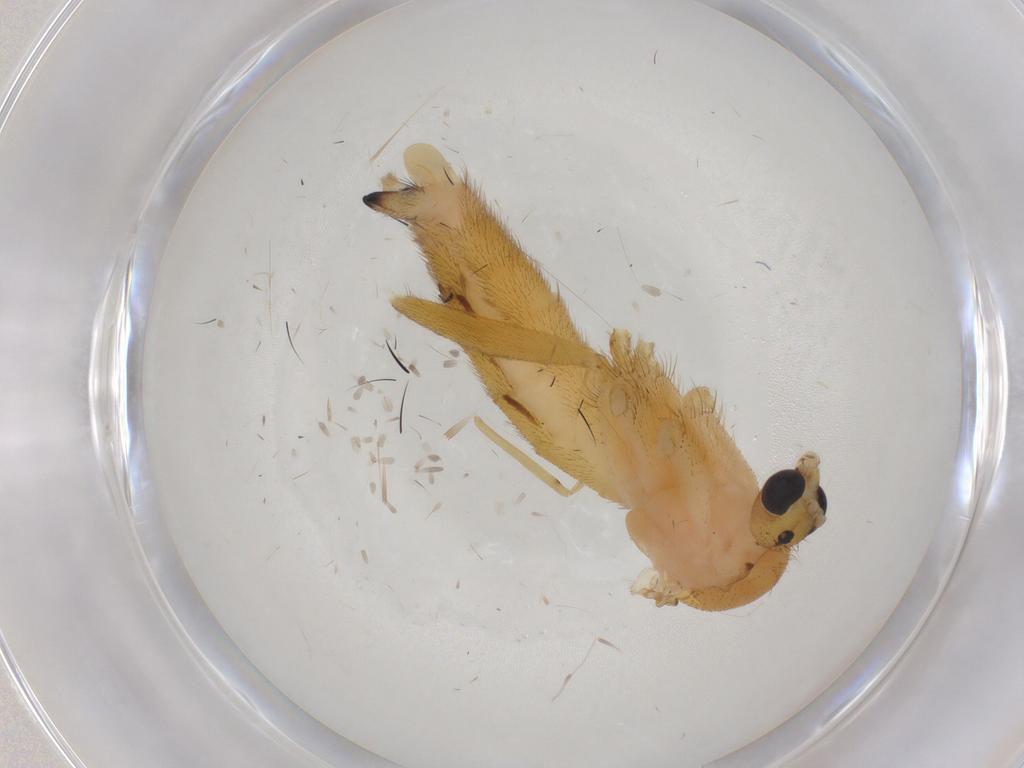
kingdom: Animalia
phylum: Arthropoda
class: Insecta
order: Diptera
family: Mycetophilidae
